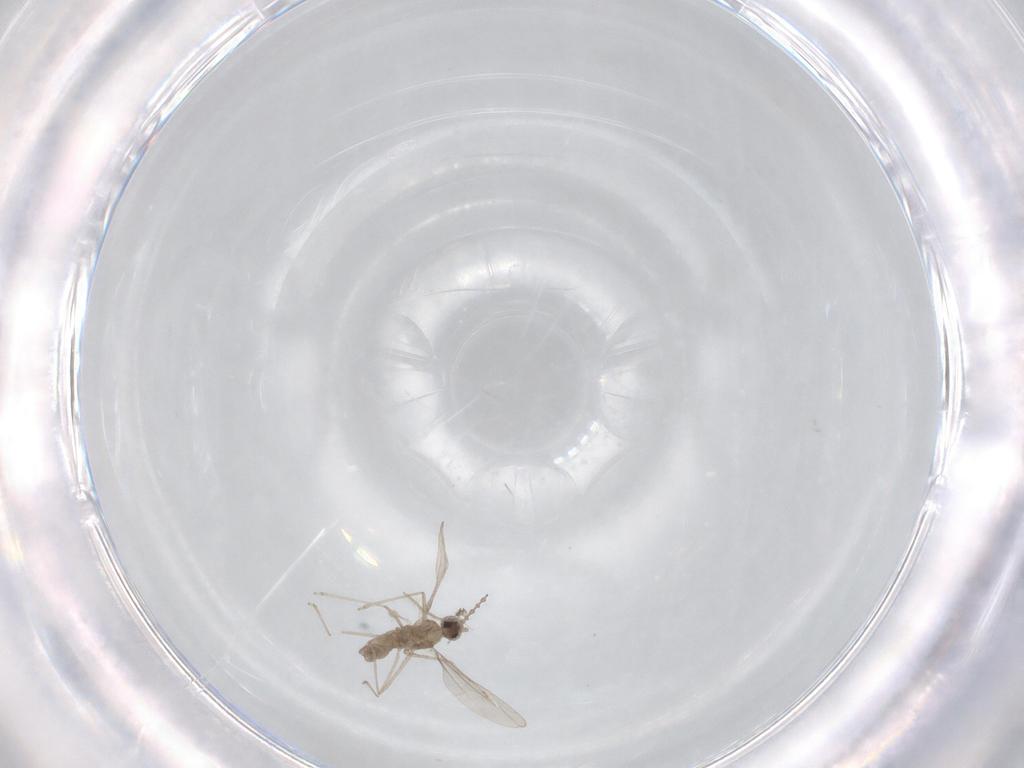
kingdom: Animalia
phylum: Arthropoda
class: Insecta
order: Diptera
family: Cecidomyiidae
